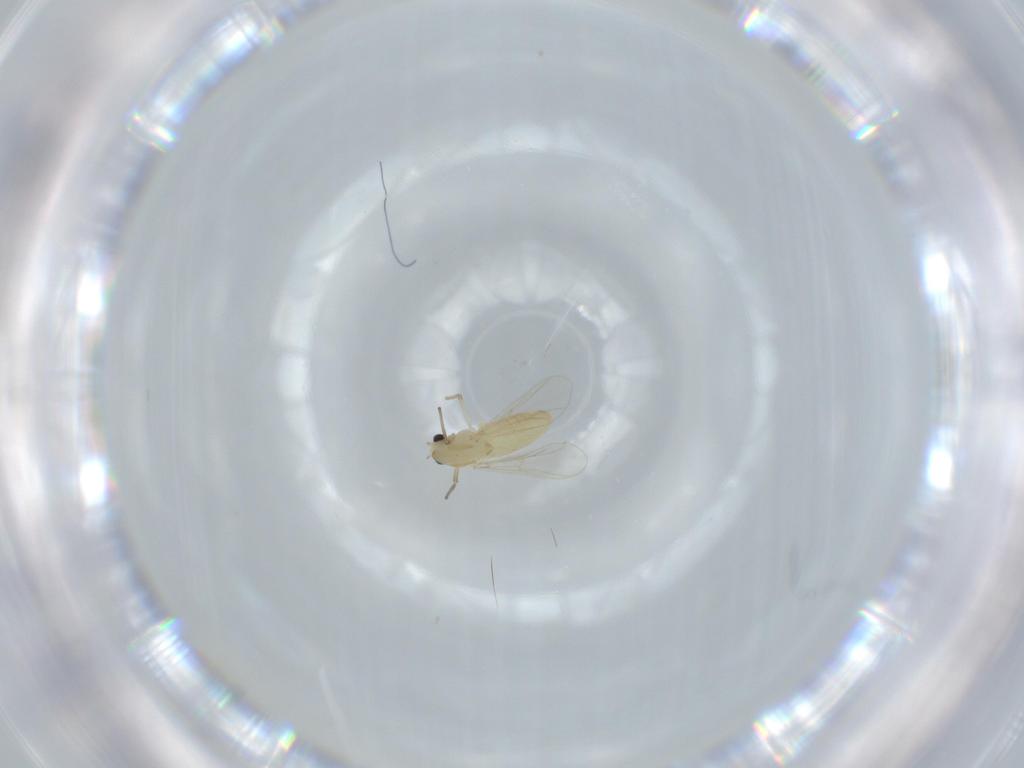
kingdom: Animalia
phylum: Arthropoda
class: Insecta
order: Diptera
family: Chironomidae
